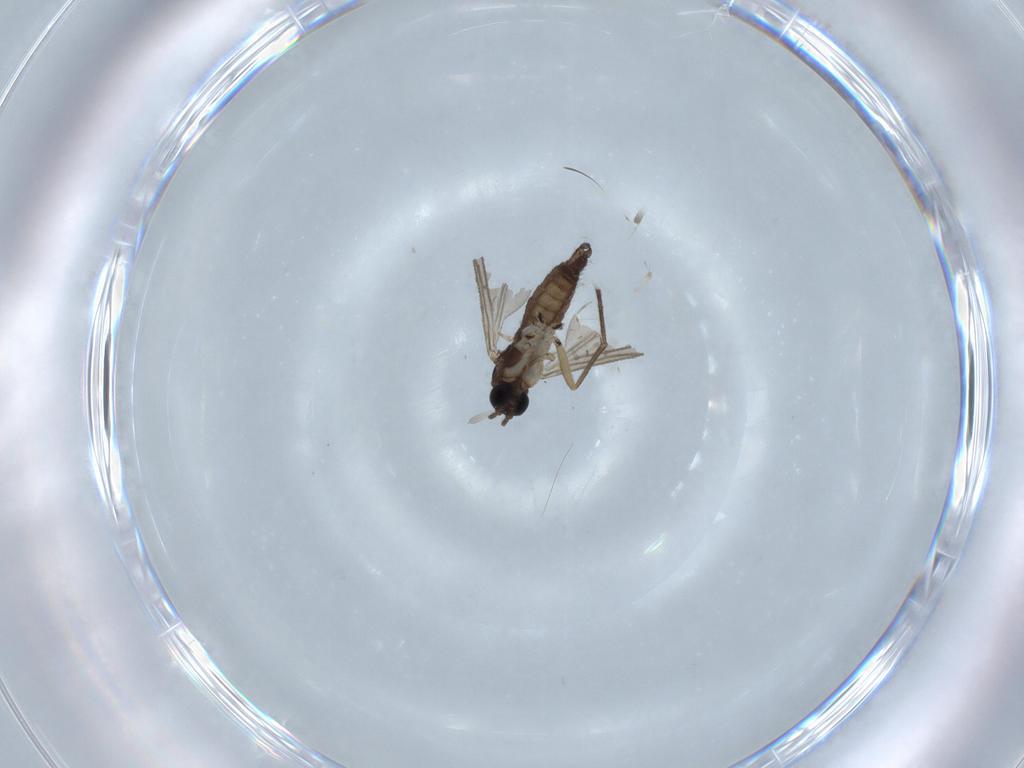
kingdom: Animalia
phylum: Arthropoda
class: Insecta
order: Diptera
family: Sciaridae
